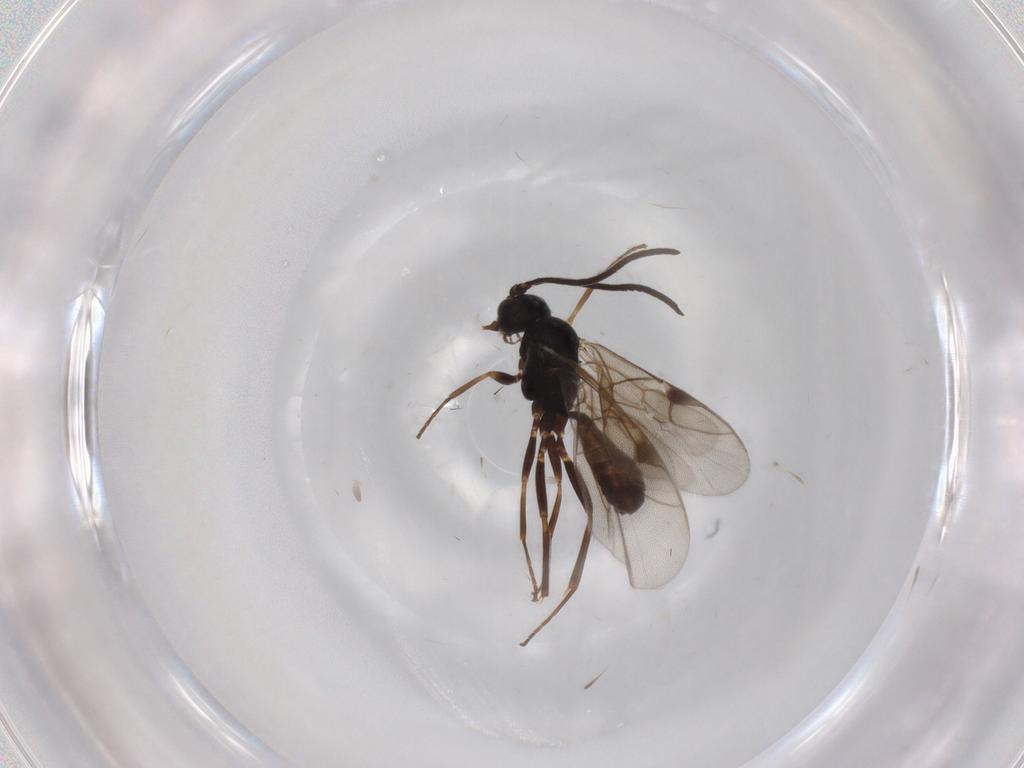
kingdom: Animalia
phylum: Arthropoda
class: Insecta
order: Hymenoptera
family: Ichneumonidae
